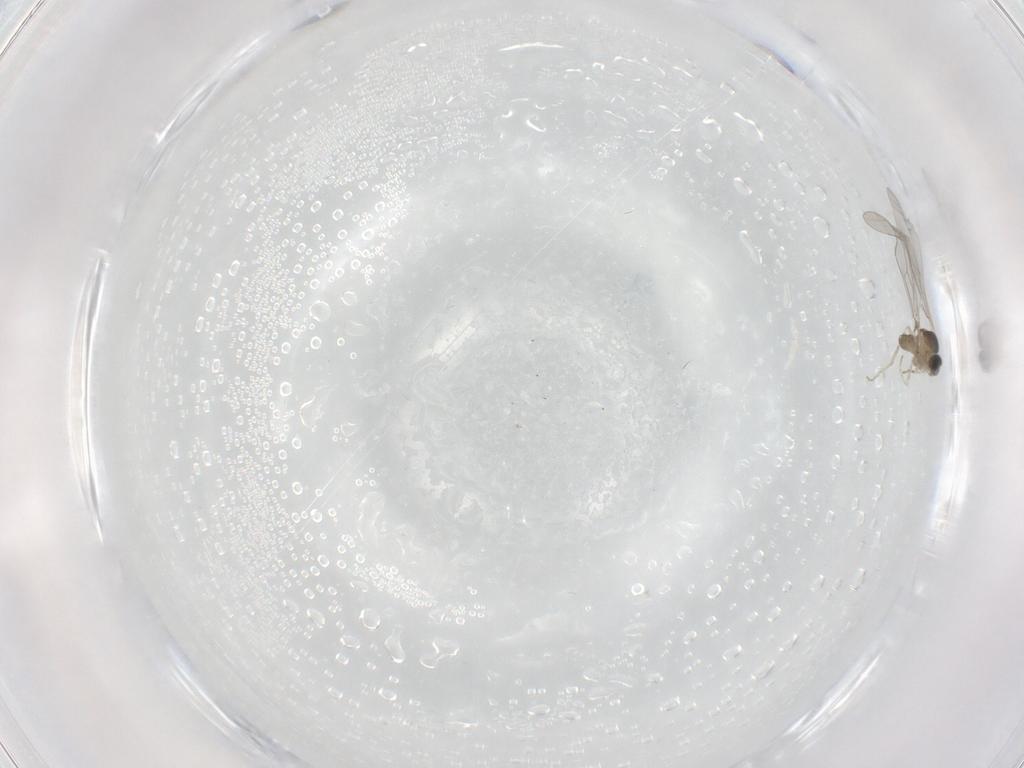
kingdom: Animalia
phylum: Arthropoda
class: Insecta
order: Diptera
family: Cecidomyiidae
